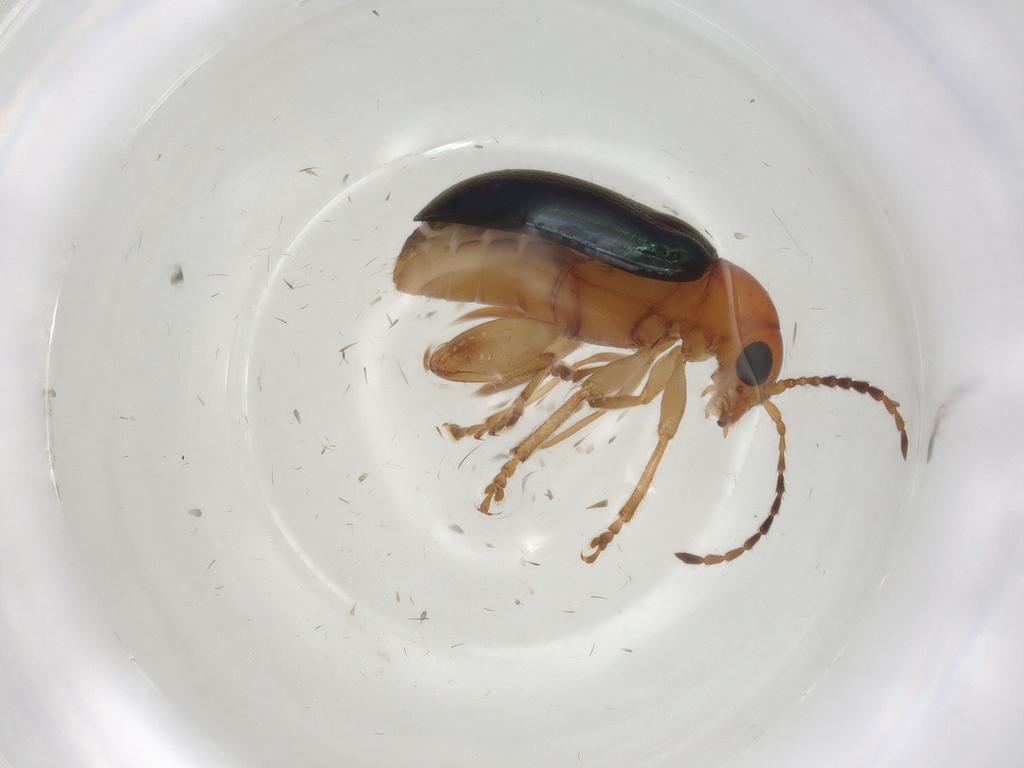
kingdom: Animalia
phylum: Arthropoda
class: Insecta
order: Coleoptera
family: Chrysomelidae
